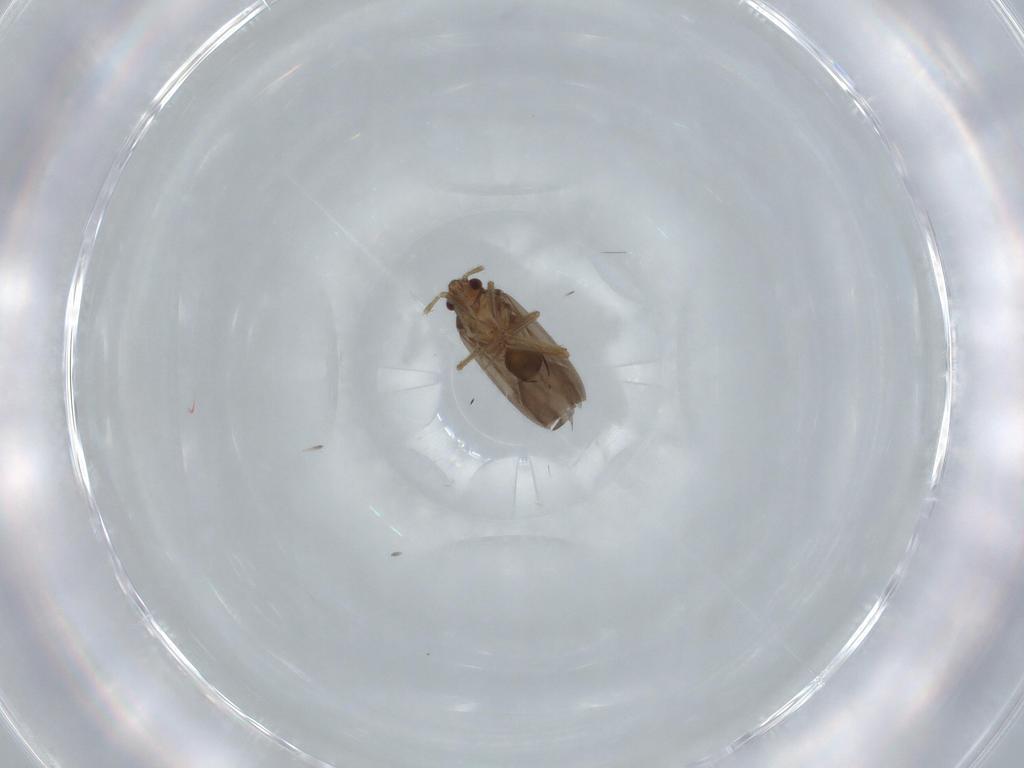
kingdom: Animalia
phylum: Arthropoda
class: Insecta
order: Hemiptera
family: Ceratocombidae
